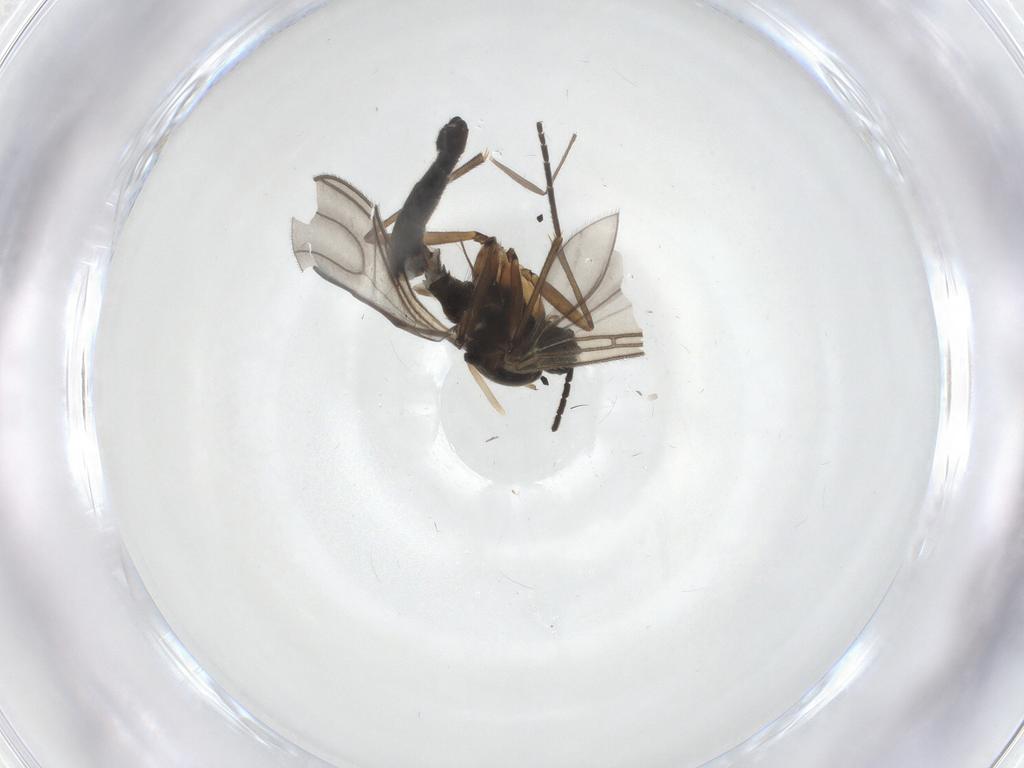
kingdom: Animalia
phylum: Arthropoda
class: Insecta
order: Diptera
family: Sciaridae
